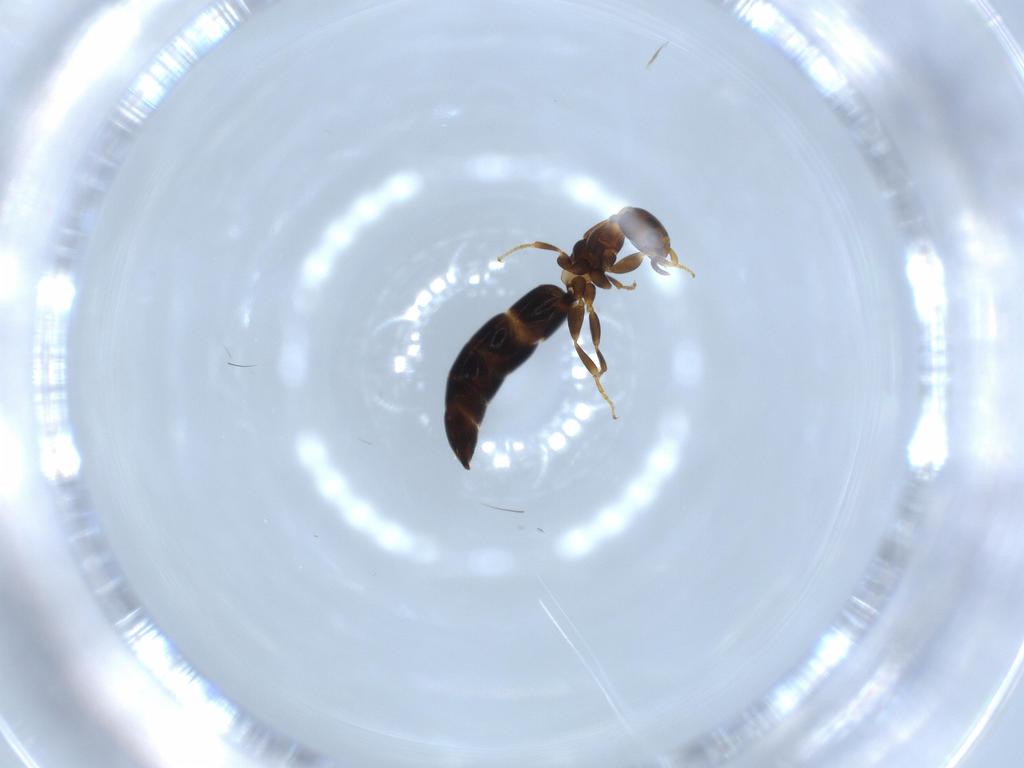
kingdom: Animalia
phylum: Arthropoda
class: Insecta
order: Hymenoptera
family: Bethylidae
